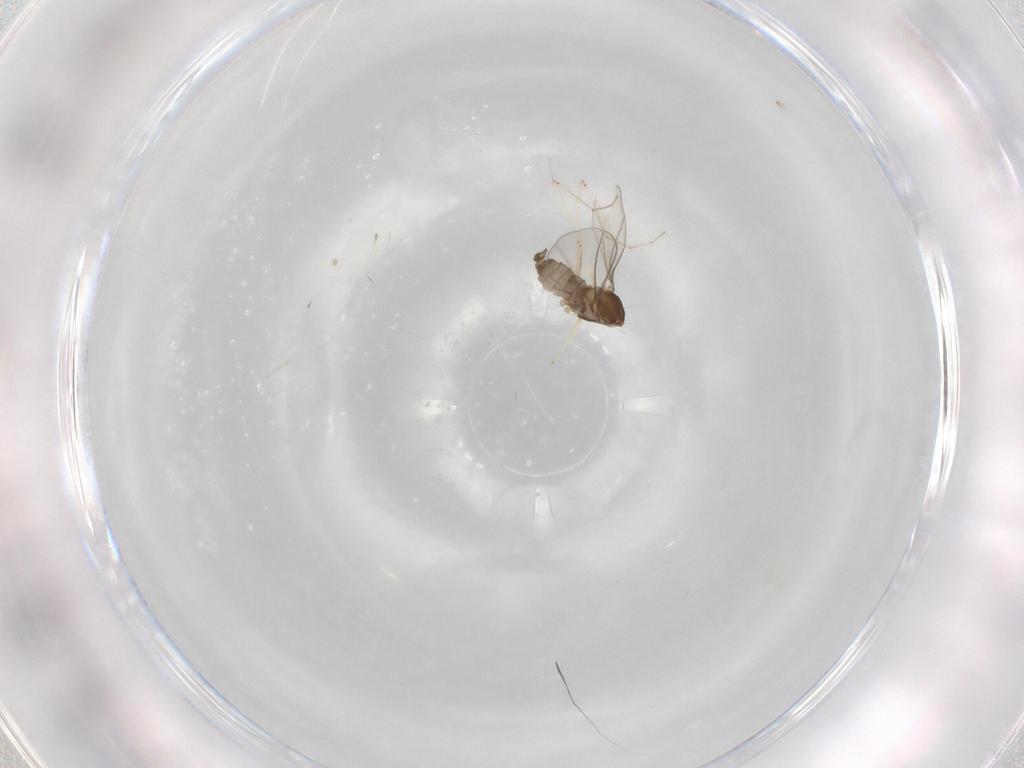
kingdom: Animalia
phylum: Arthropoda
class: Insecta
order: Diptera
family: Cecidomyiidae
